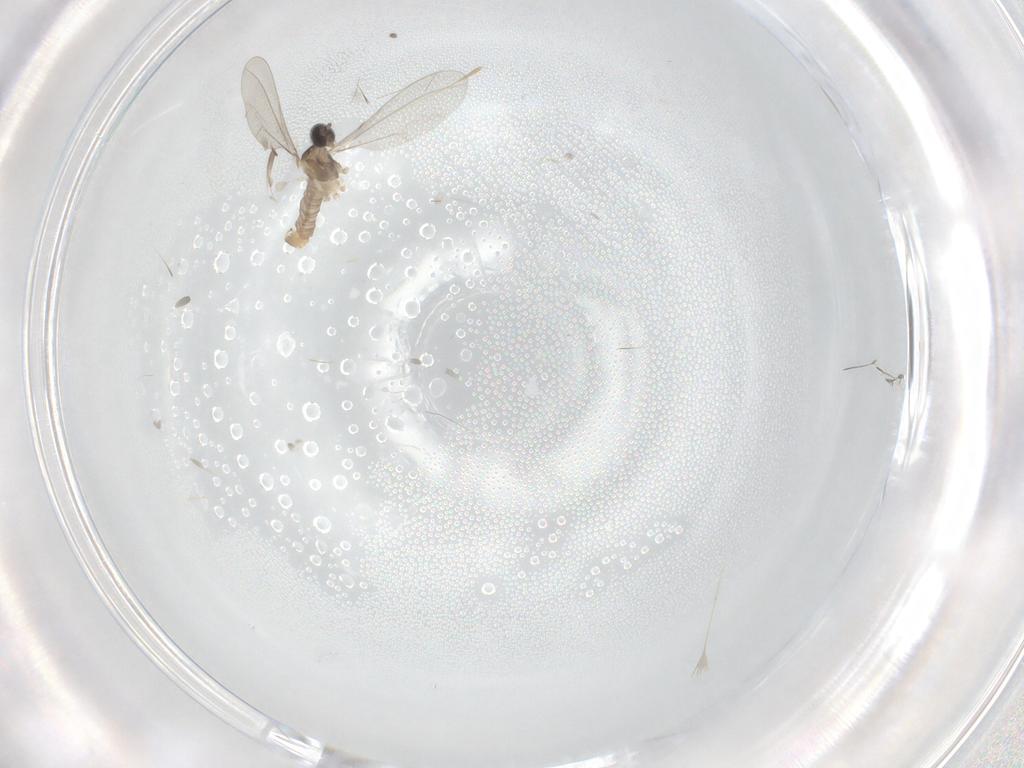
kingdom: Animalia
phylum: Arthropoda
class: Insecta
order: Diptera
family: Cecidomyiidae
